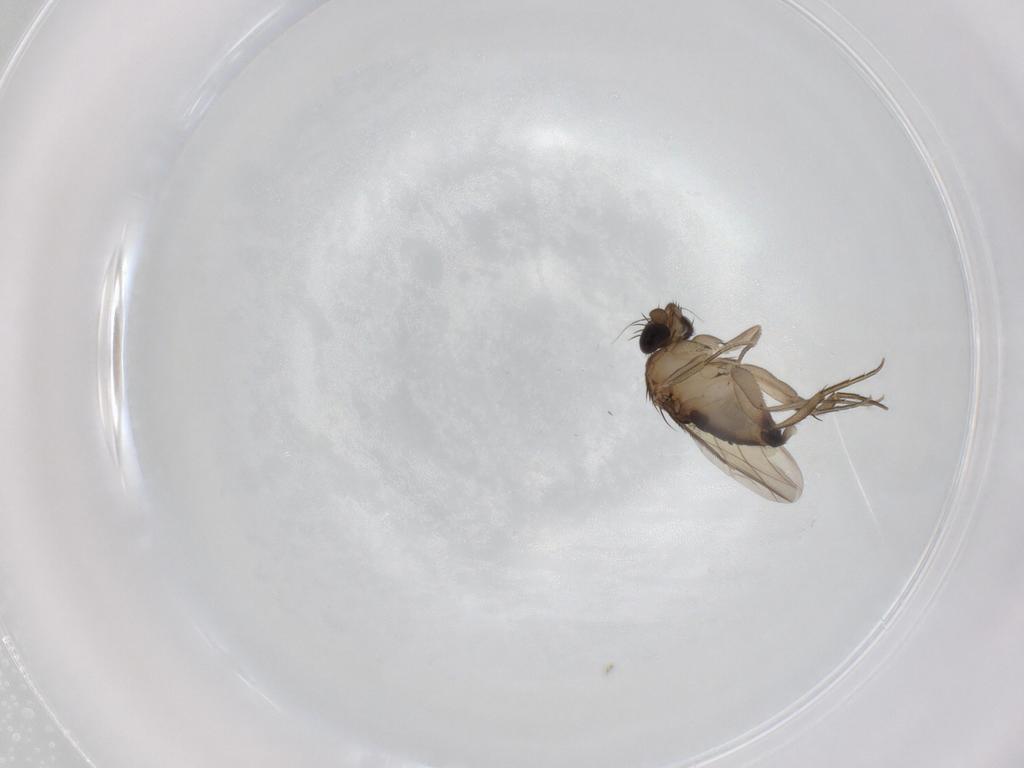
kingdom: Animalia
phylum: Arthropoda
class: Insecta
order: Diptera
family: Phoridae
